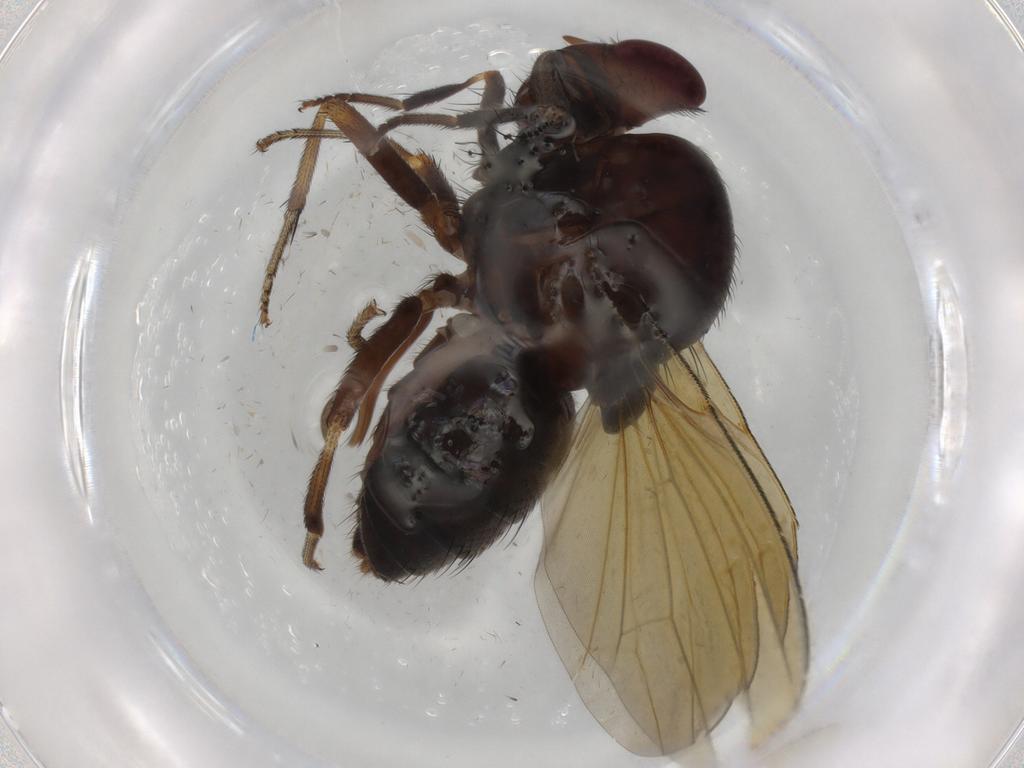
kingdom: Animalia
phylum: Arthropoda
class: Insecta
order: Diptera
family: Lauxaniidae
